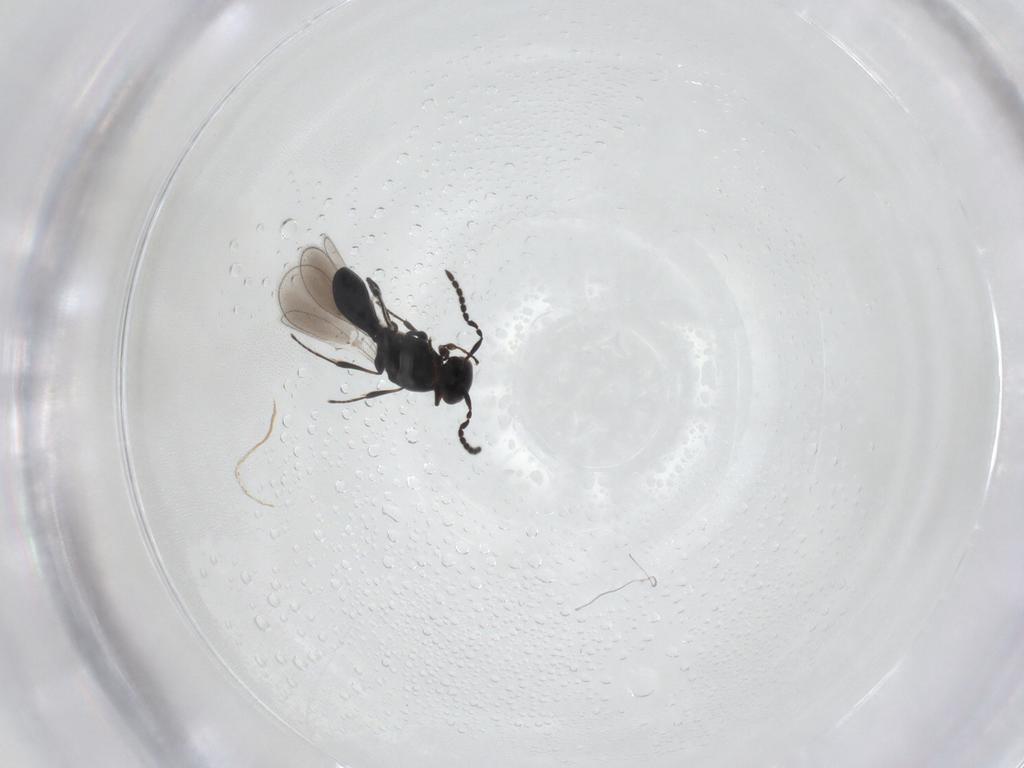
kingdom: Animalia
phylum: Arthropoda
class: Insecta
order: Hymenoptera
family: Platygastridae
